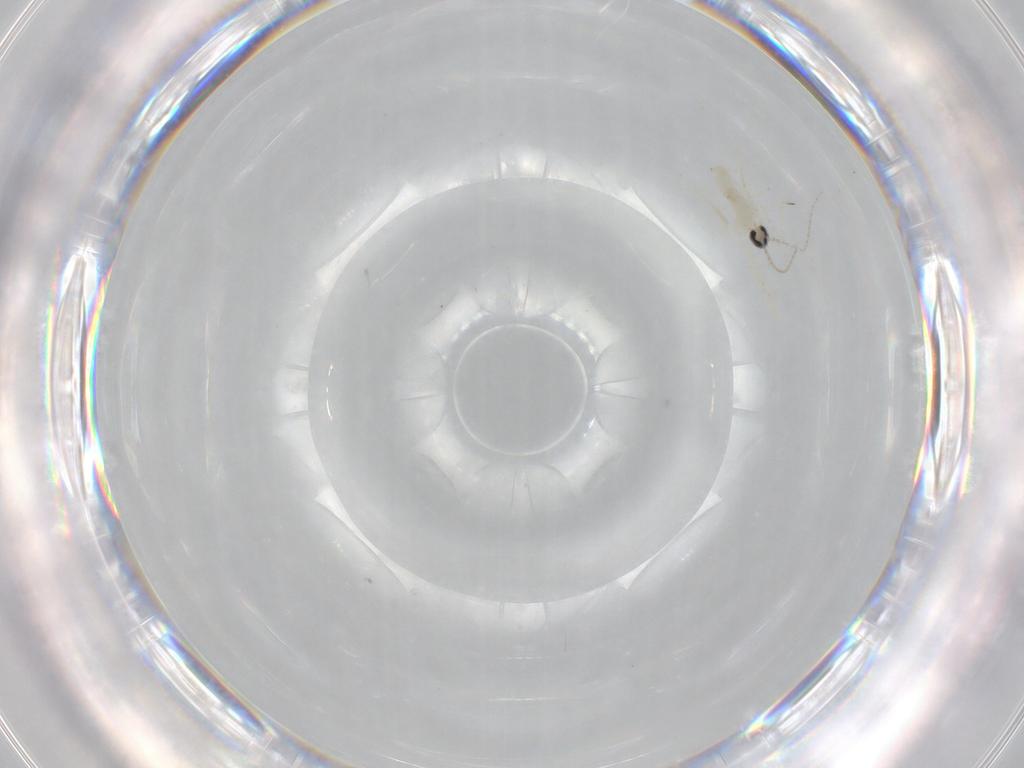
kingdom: Animalia
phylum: Arthropoda
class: Insecta
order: Diptera
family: Cecidomyiidae
